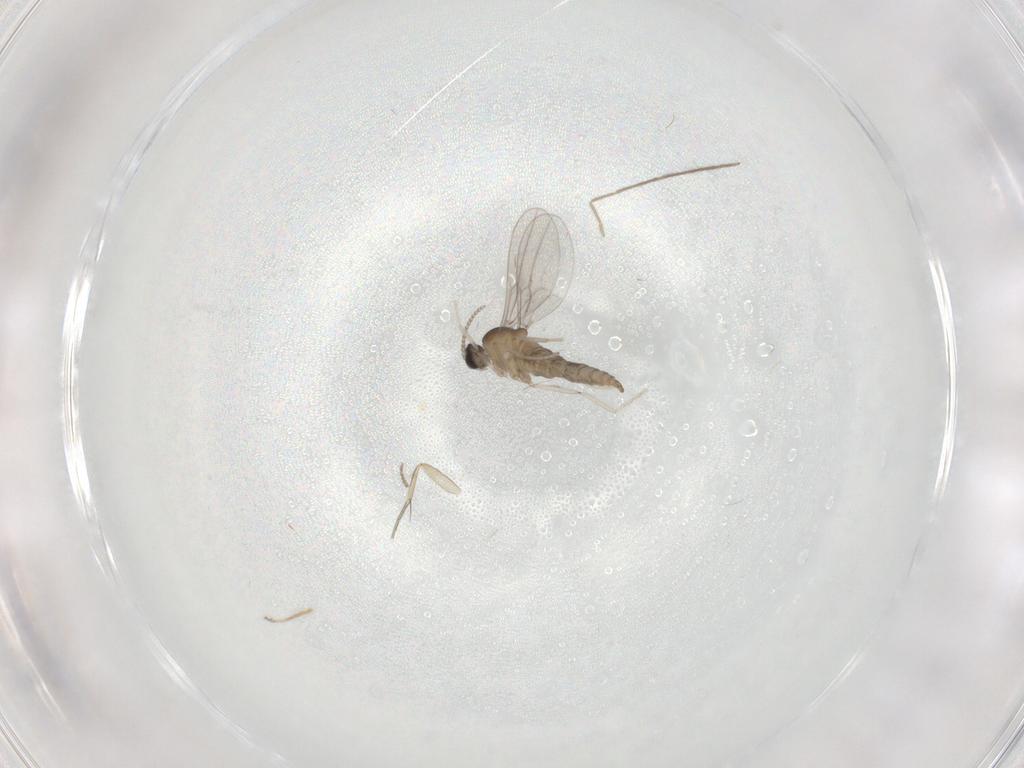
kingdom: Animalia
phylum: Arthropoda
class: Insecta
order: Diptera
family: Cecidomyiidae
